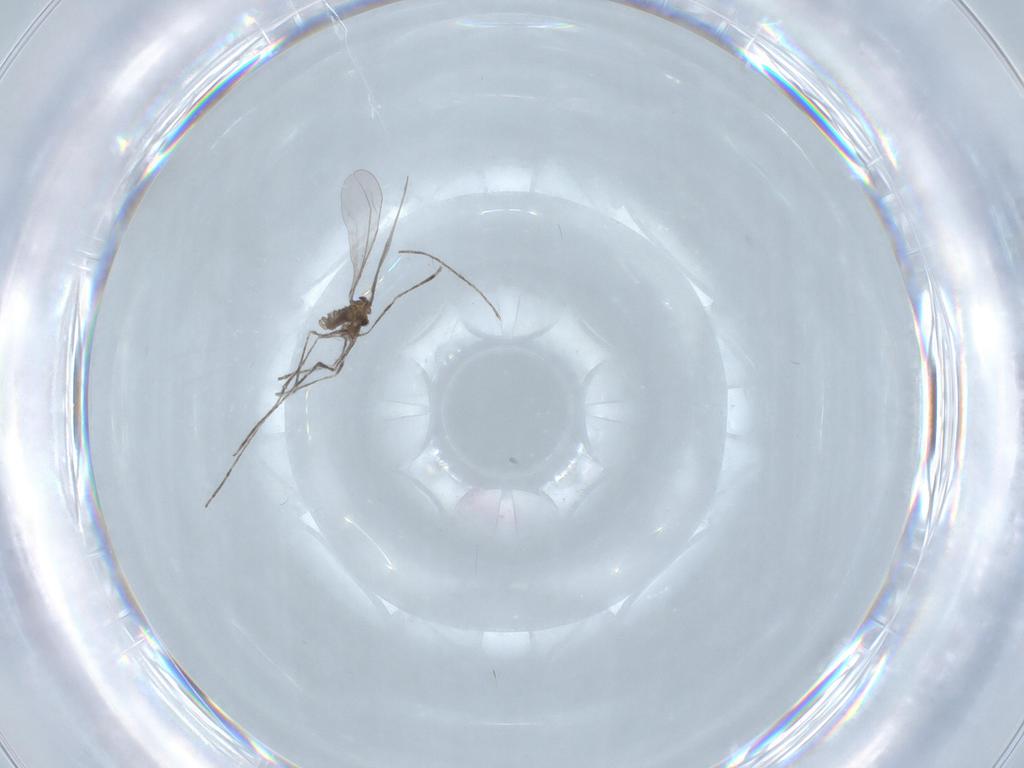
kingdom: Animalia
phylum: Arthropoda
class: Insecta
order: Diptera
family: Cecidomyiidae
